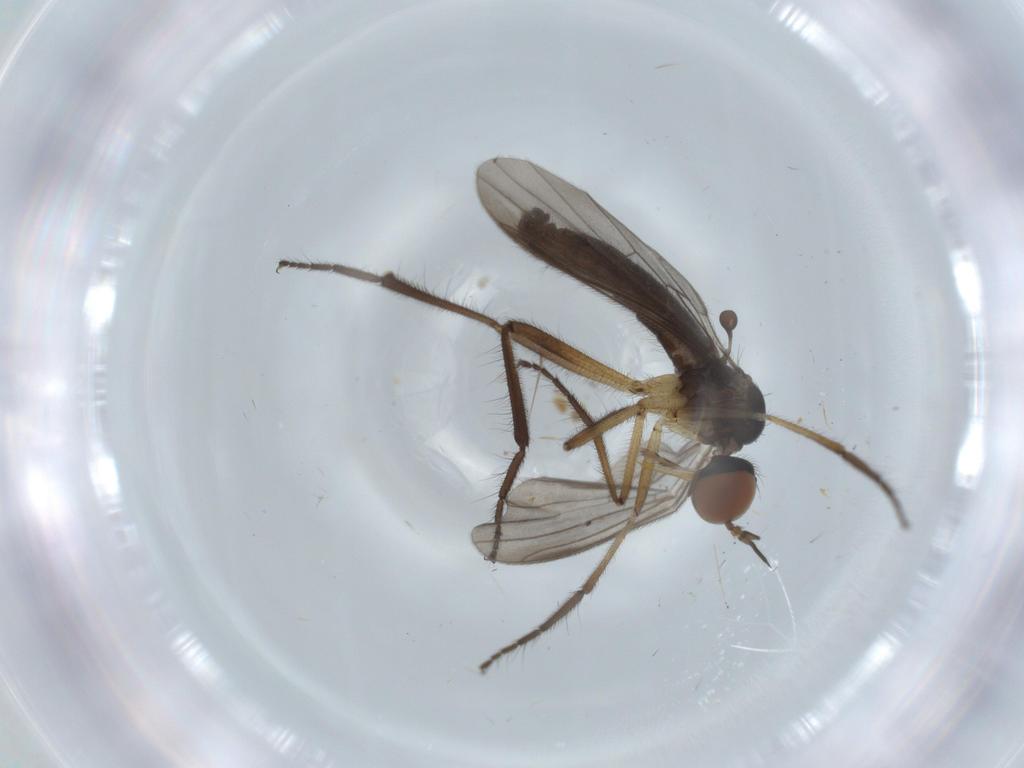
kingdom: Animalia
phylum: Arthropoda
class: Insecta
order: Diptera
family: Empididae
